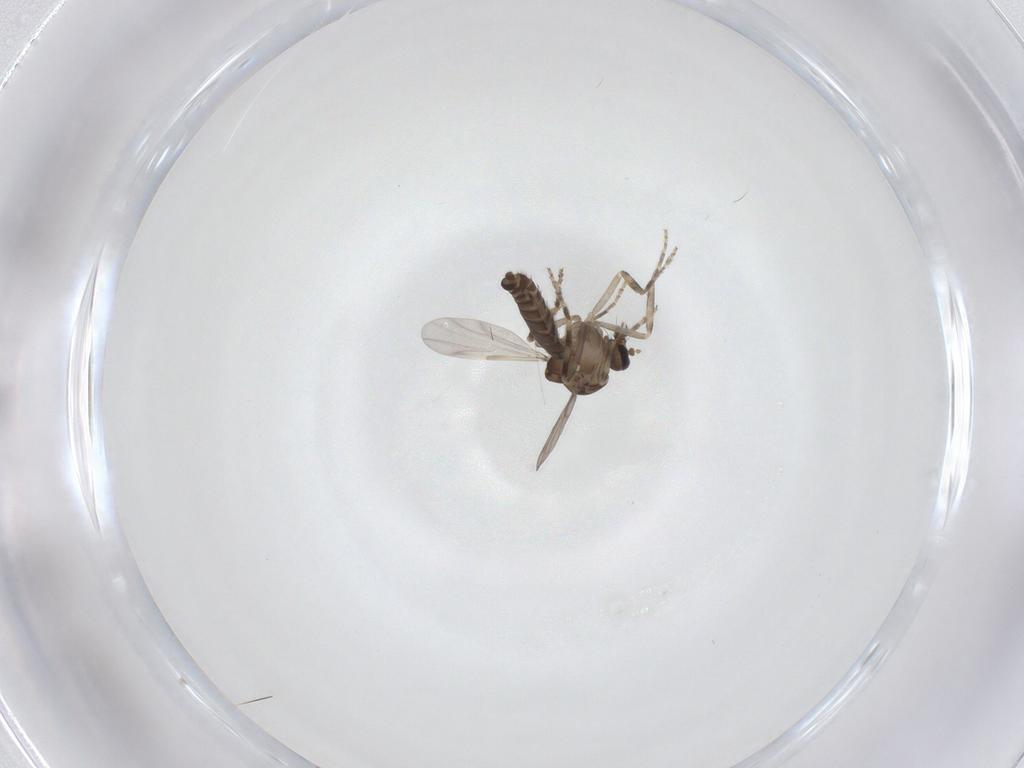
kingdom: Animalia
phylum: Arthropoda
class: Insecta
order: Diptera
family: Ceratopogonidae
